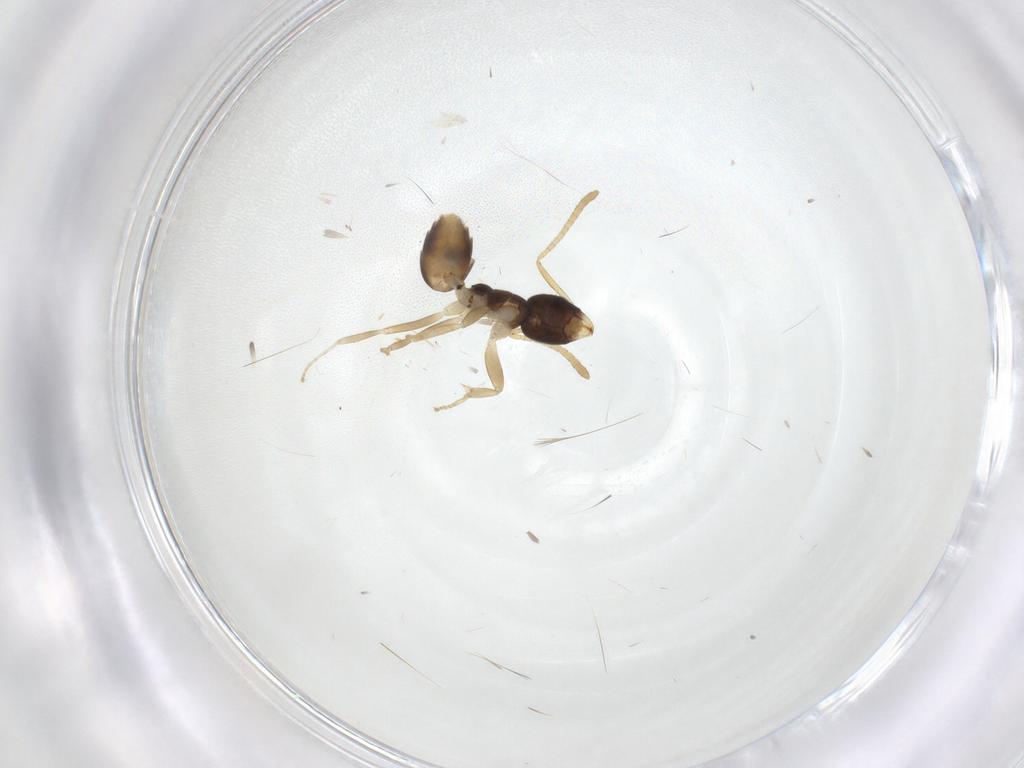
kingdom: Animalia
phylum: Arthropoda
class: Insecta
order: Hymenoptera
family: Formicidae
